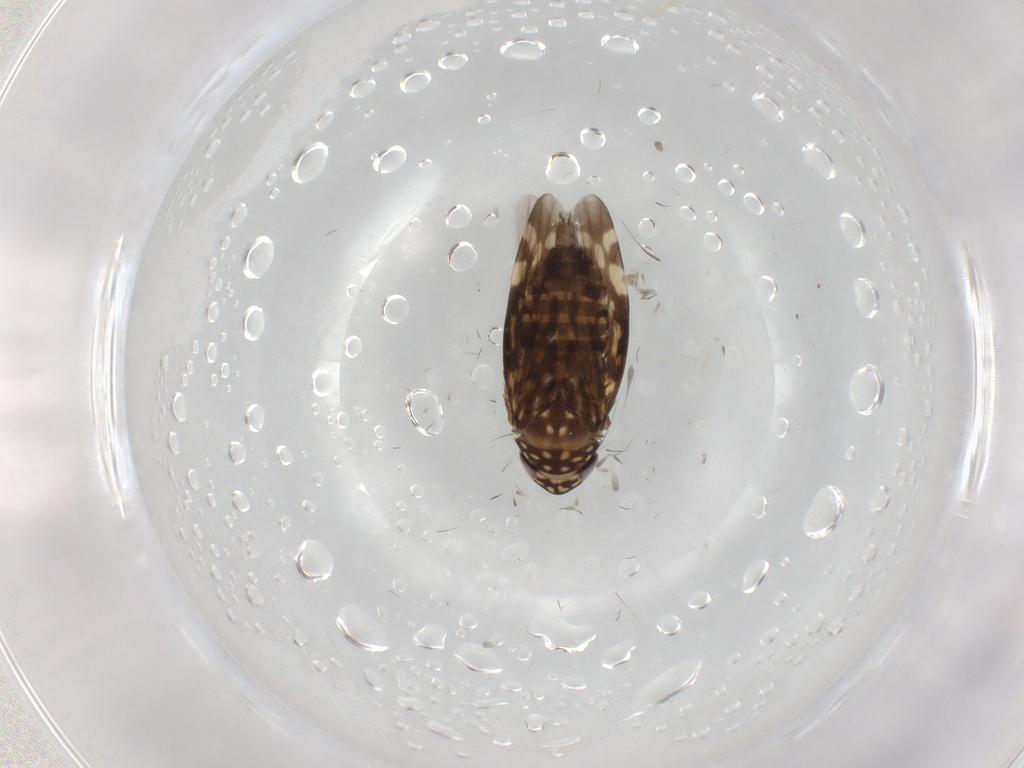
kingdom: Animalia
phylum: Arthropoda
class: Insecta
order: Hemiptera
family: Cicadellidae
